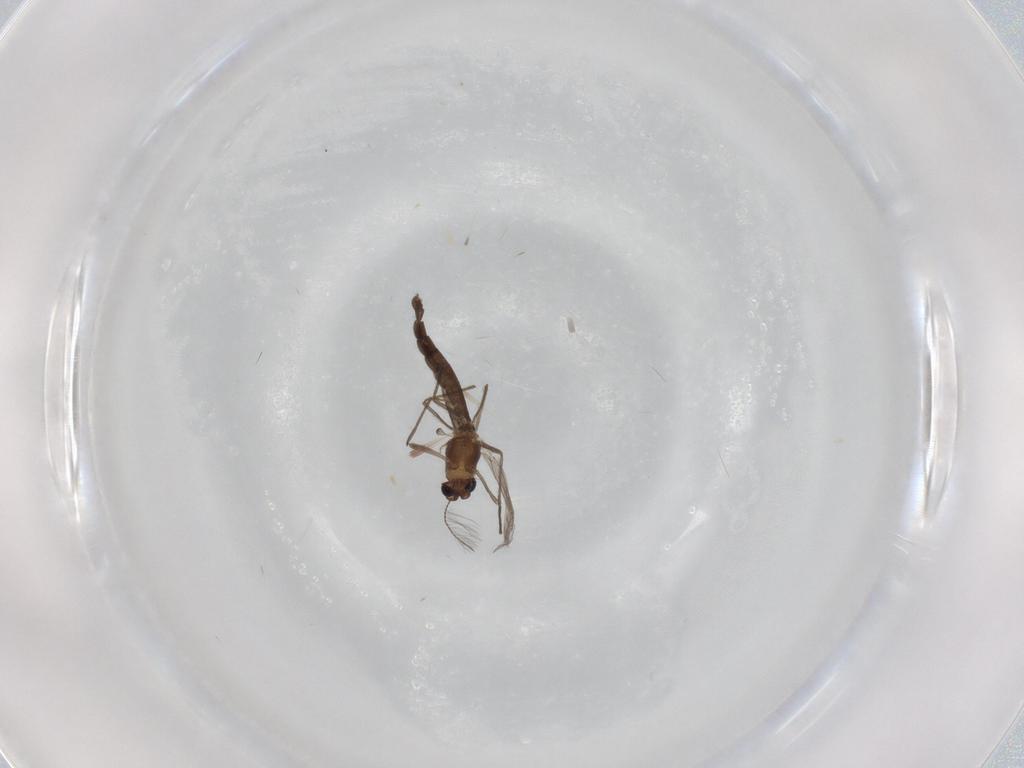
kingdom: Animalia
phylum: Arthropoda
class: Insecta
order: Diptera
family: Chironomidae
